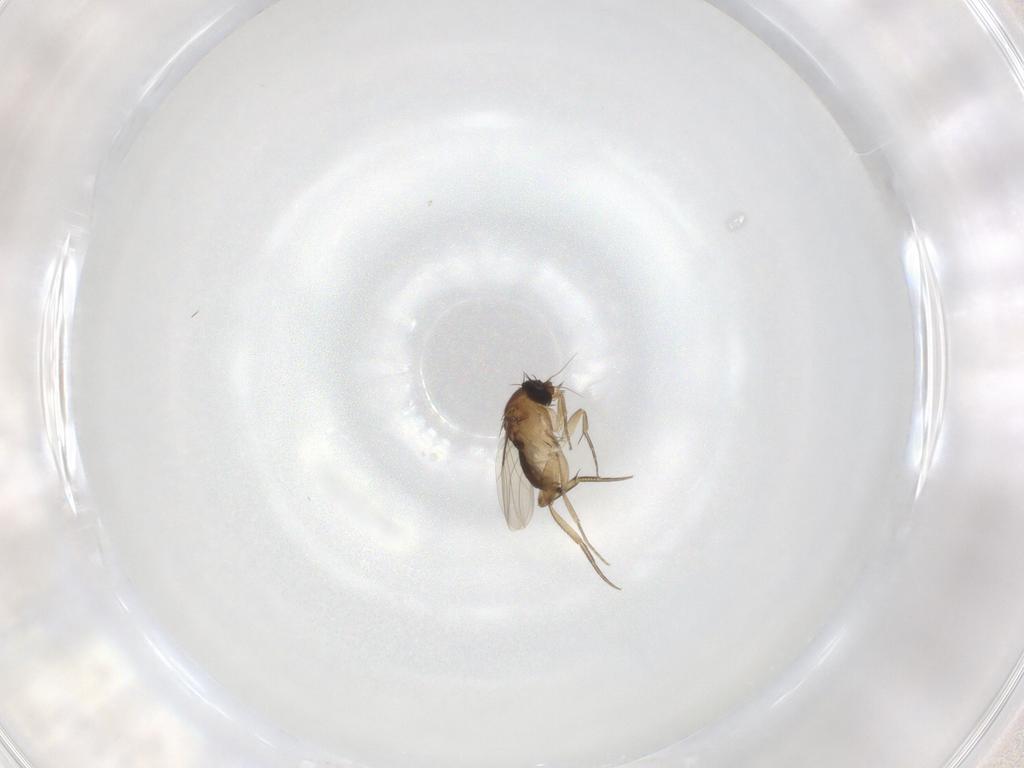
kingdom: Animalia
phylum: Arthropoda
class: Insecta
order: Diptera
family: Phoridae
